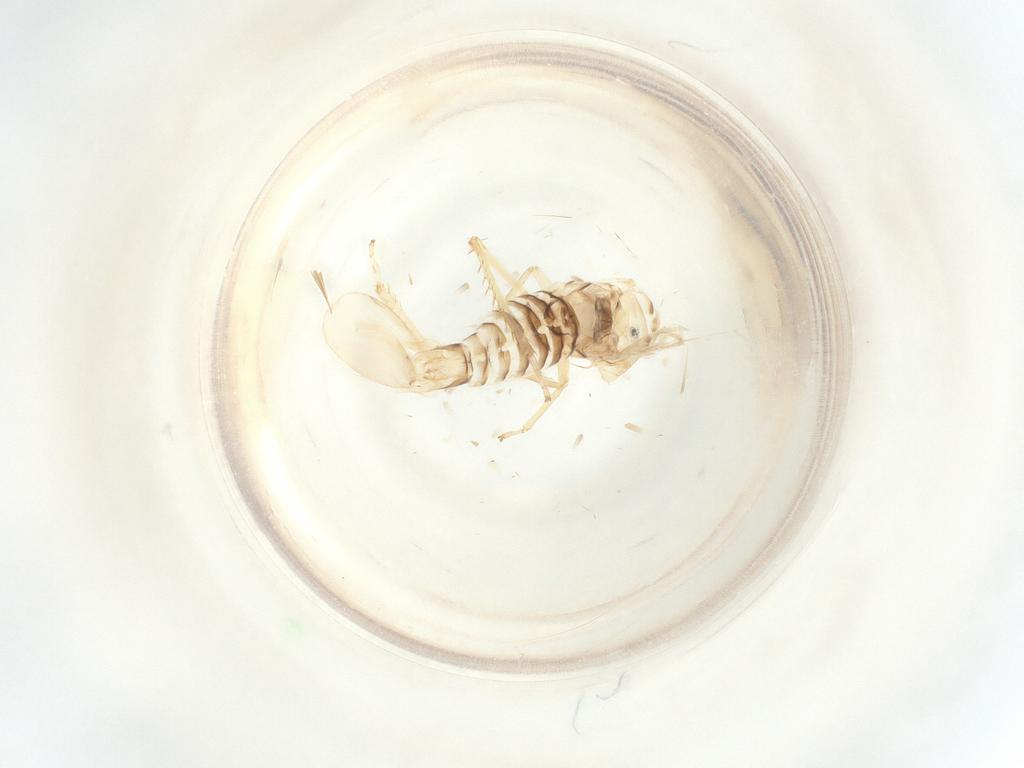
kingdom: Animalia
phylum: Arthropoda
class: Insecta
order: Hemiptera
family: Cicadellidae
